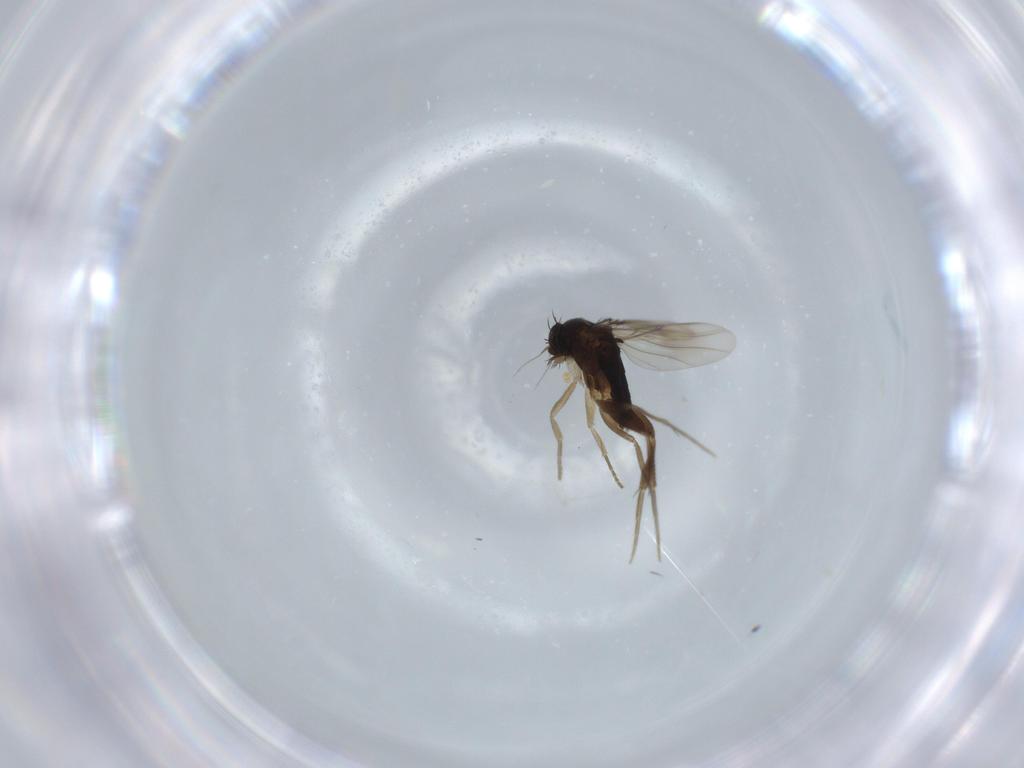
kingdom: Animalia
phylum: Arthropoda
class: Insecta
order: Diptera
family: Phoridae
